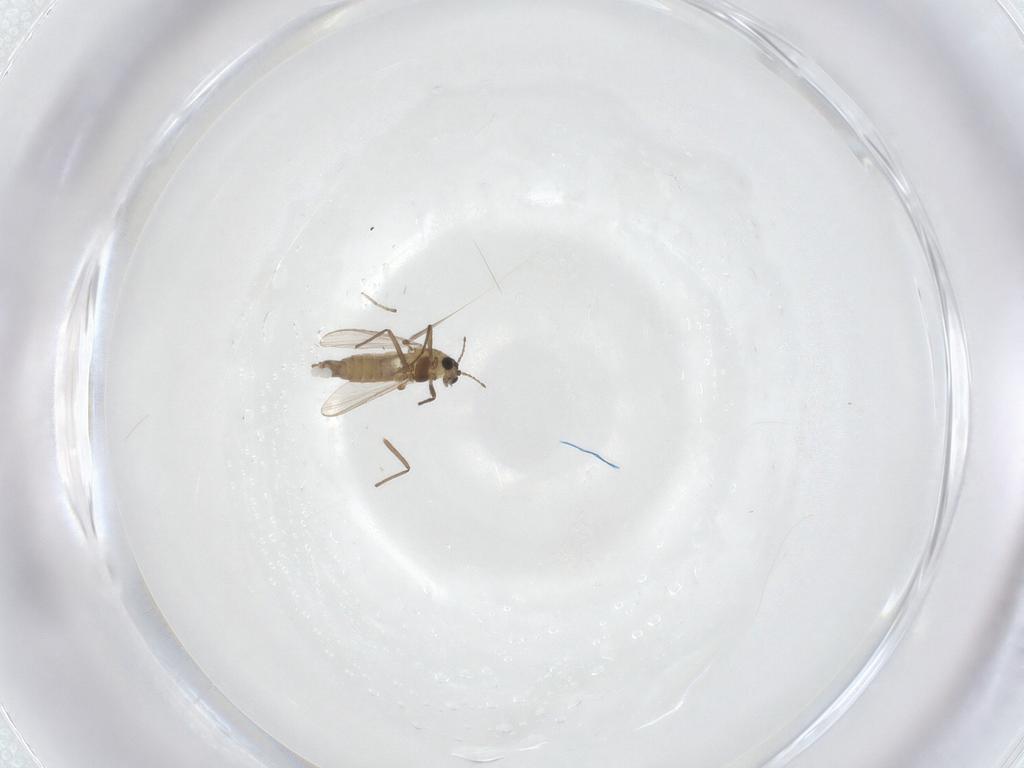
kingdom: Animalia
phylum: Arthropoda
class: Insecta
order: Diptera
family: Chironomidae
